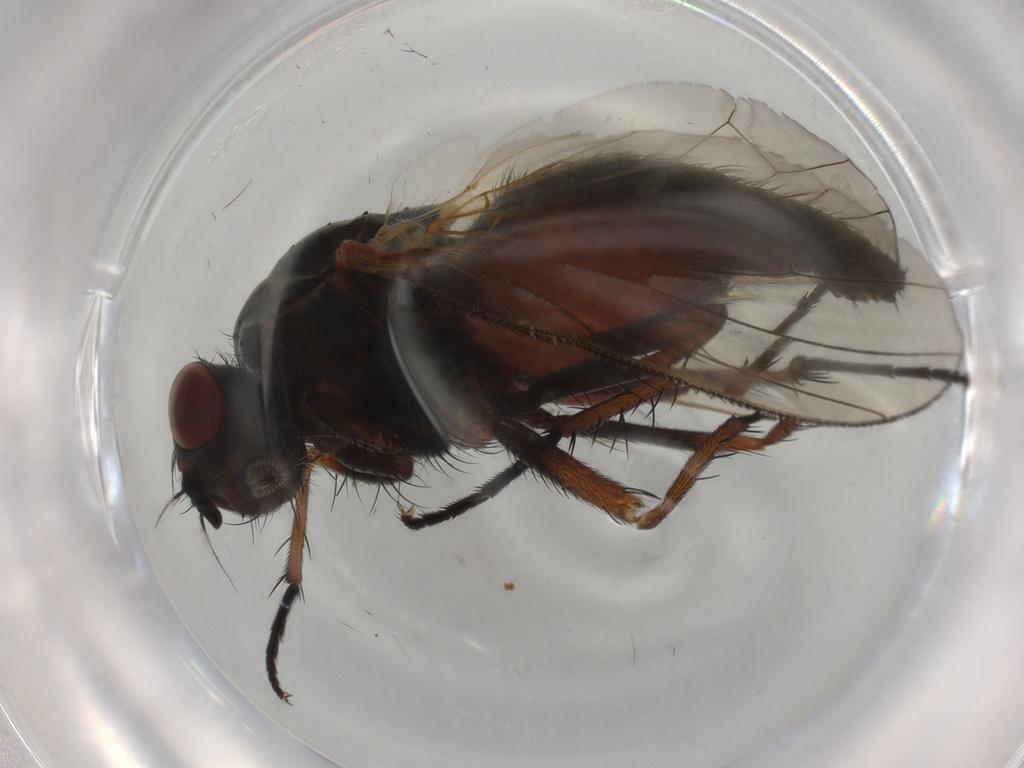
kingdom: Animalia
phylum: Arthropoda
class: Insecta
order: Diptera
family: Anthomyiidae
